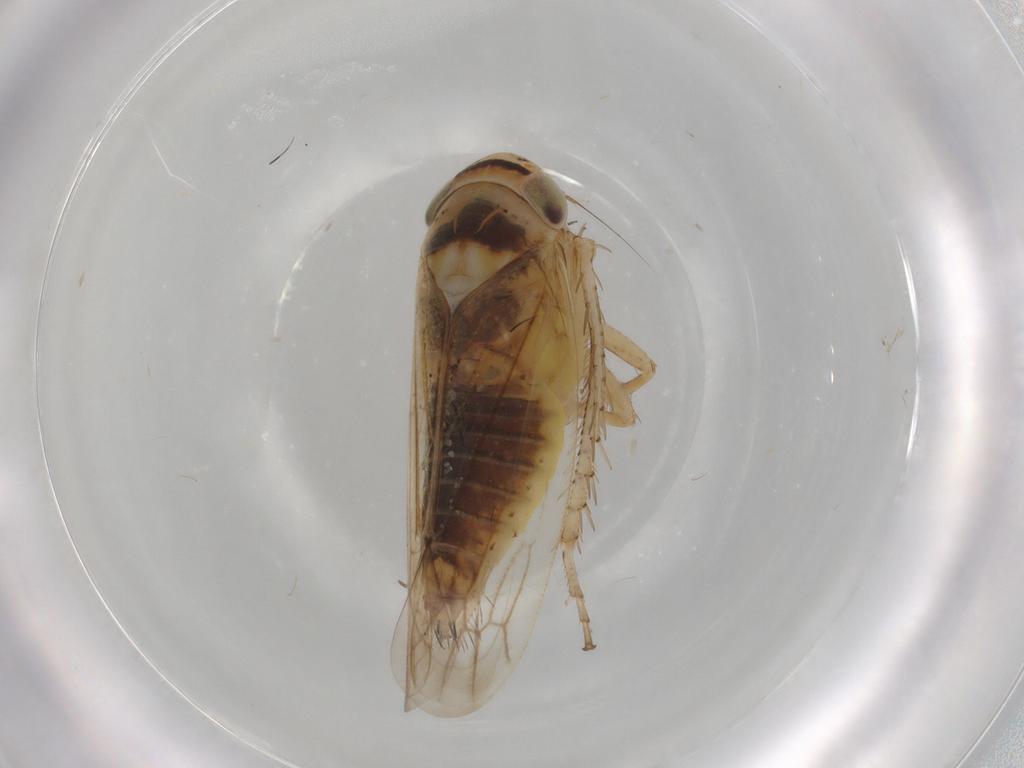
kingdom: Animalia
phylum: Arthropoda
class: Insecta
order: Hemiptera
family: Cicadellidae
